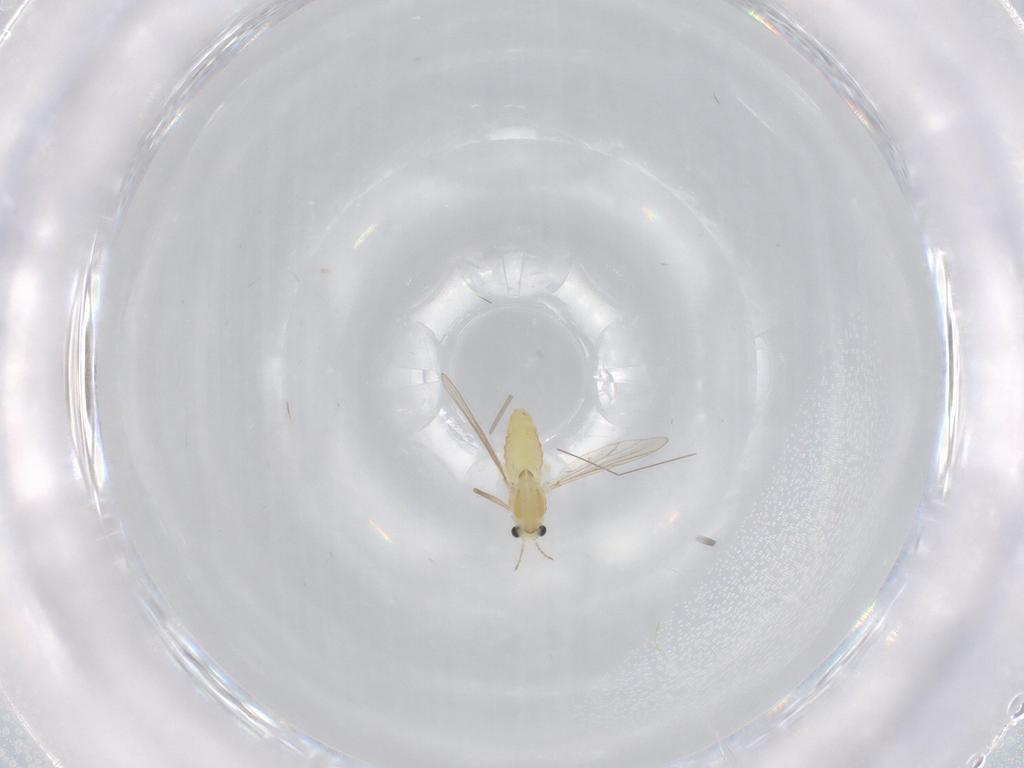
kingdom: Animalia
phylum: Arthropoda
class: Insecta
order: Diptera
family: Chironomidae
